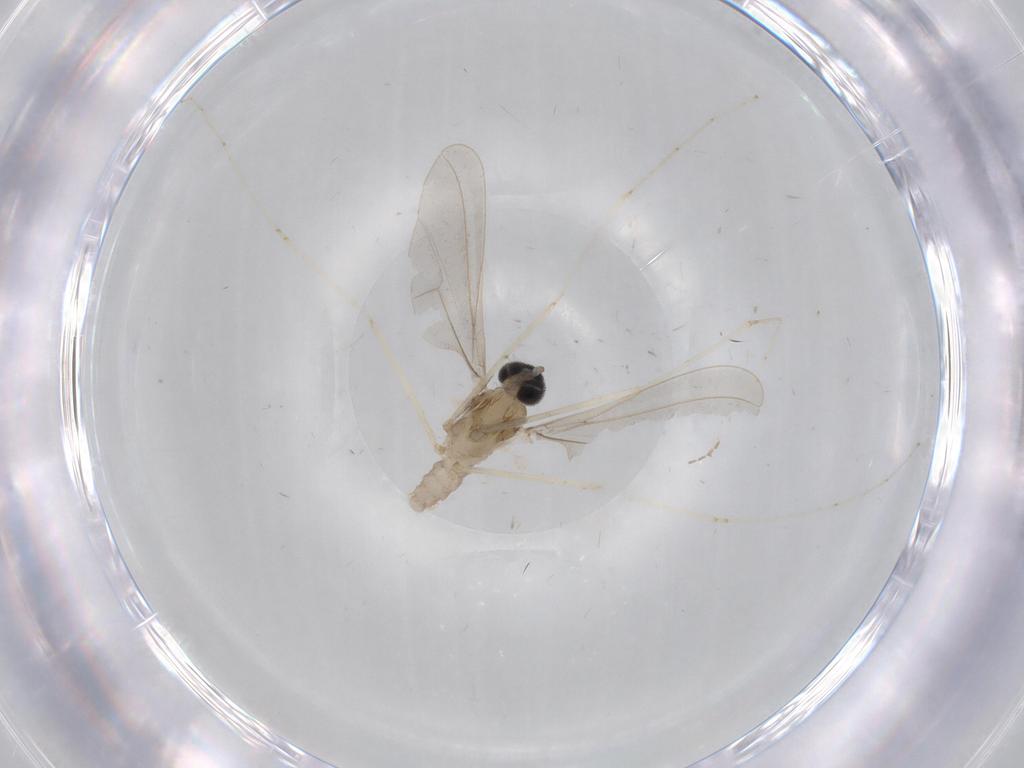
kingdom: Animalia
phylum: Arthropoda
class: Insecta
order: Diptera
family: Cecidomyiidae
